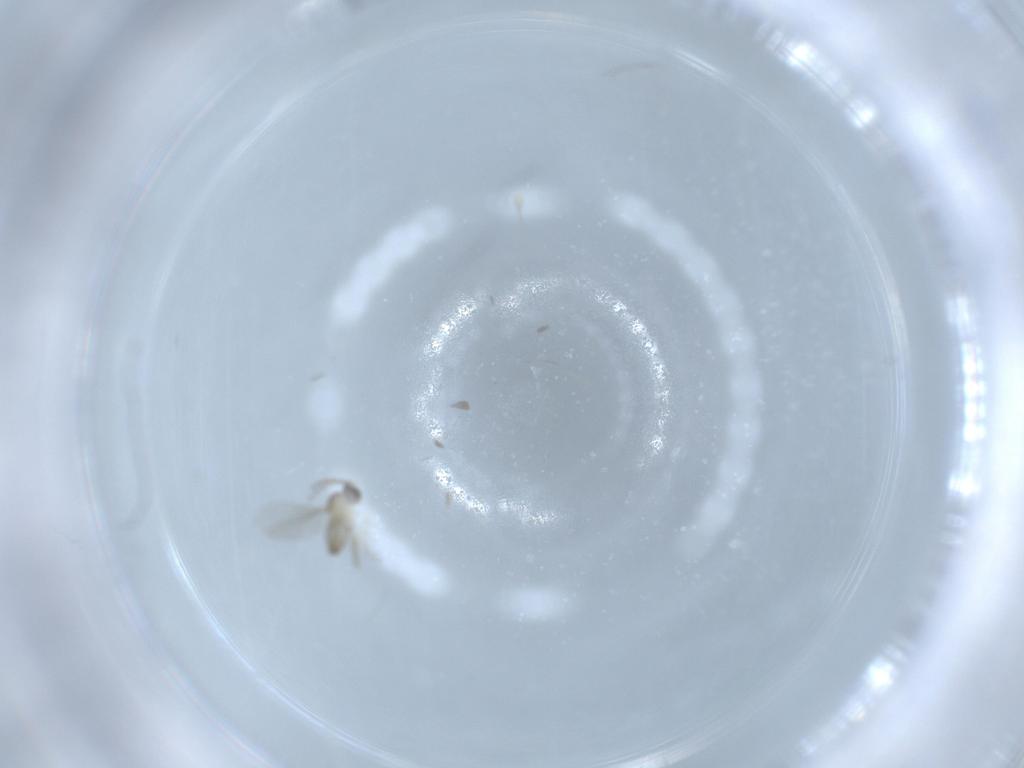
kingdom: Animalia
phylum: Arthropoda
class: Insecta
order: Diptera
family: Cecidomyiidae
